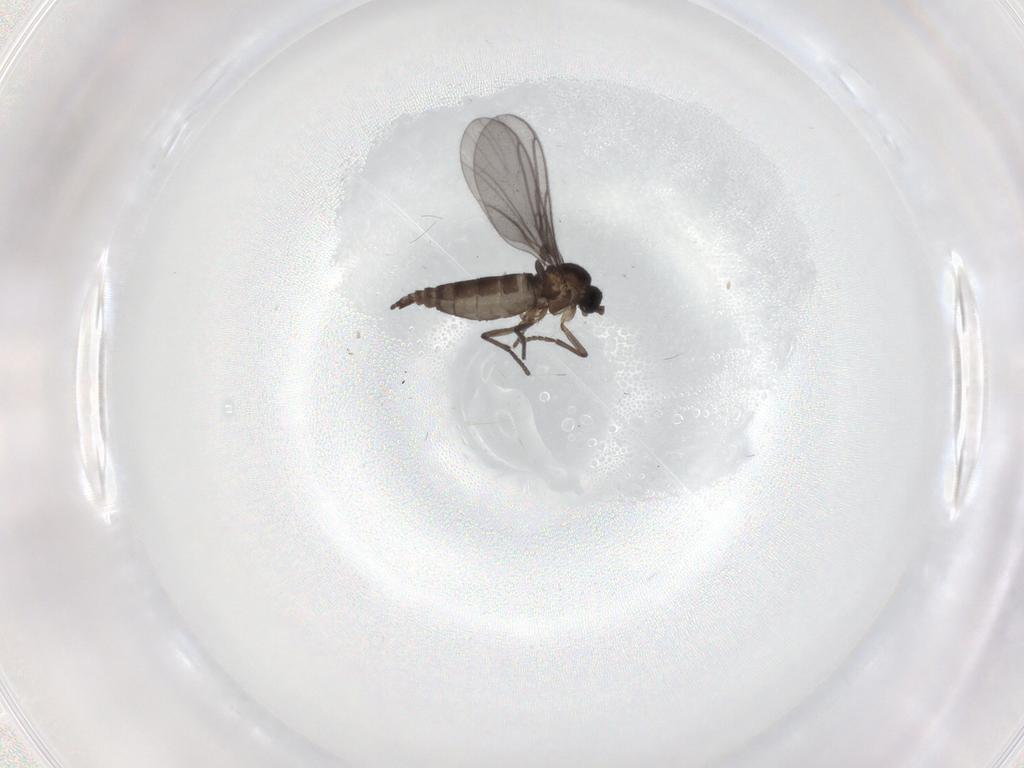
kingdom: Animalia
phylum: Arthropoda
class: Insecta
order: Diptera
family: Sciaridae
